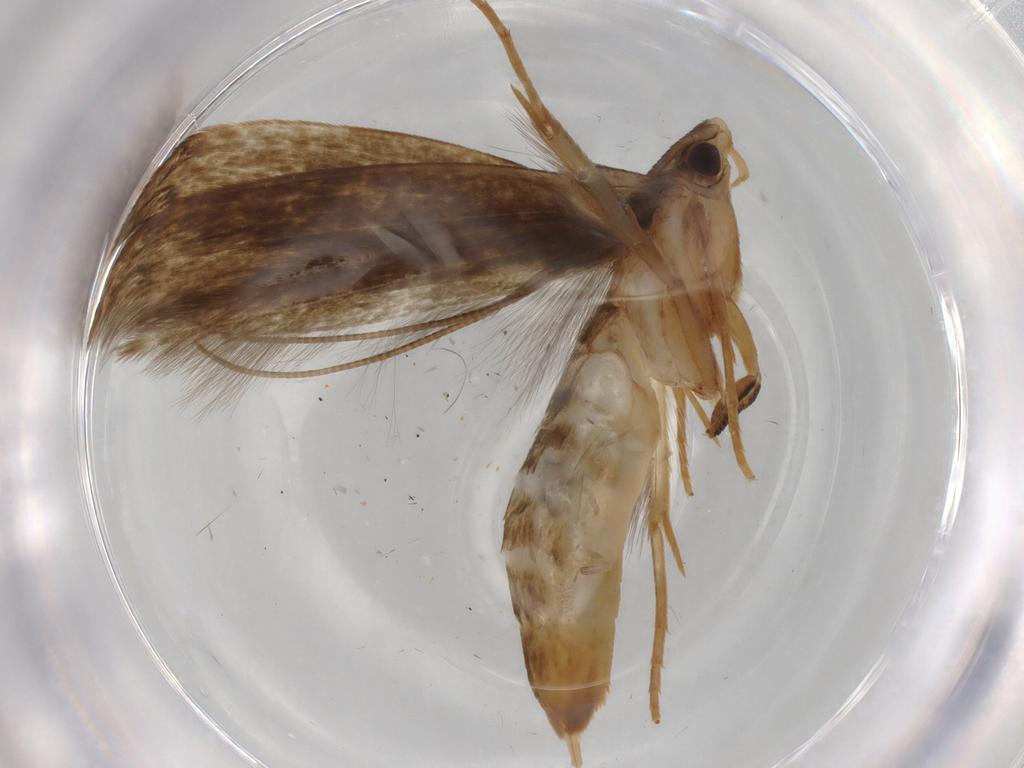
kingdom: Animalia
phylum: Arthropoda
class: Insecta
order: Lepidoptera
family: Tineidae
